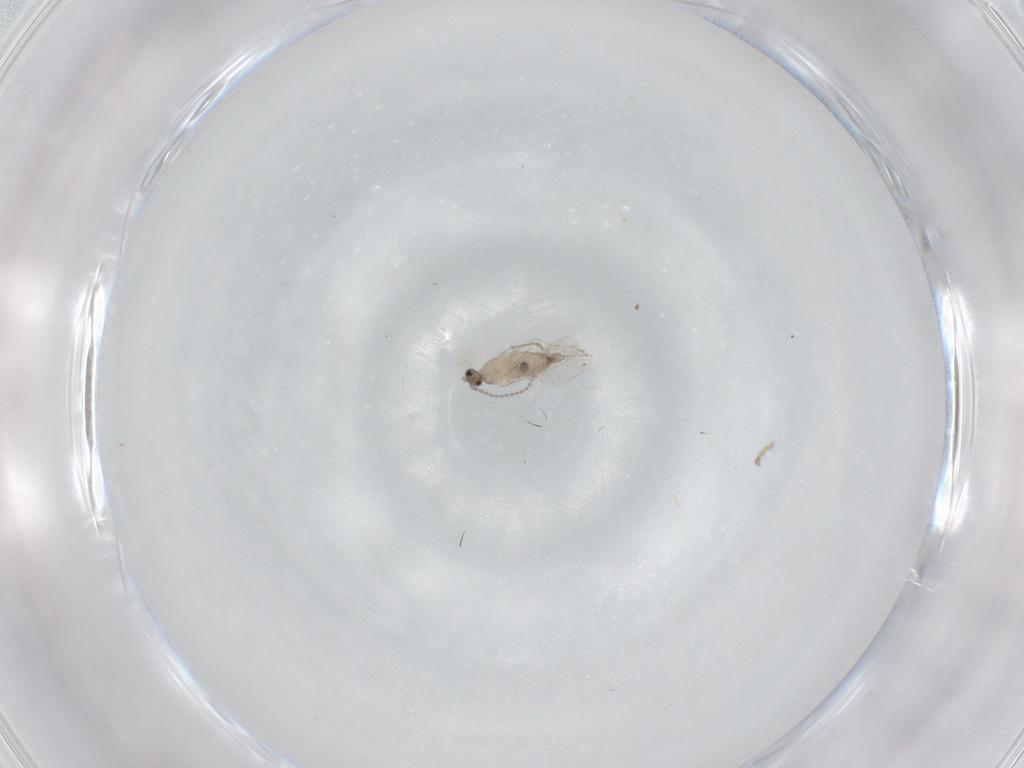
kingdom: Animalia
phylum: Arthropoda
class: Insecta
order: Diptera
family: Cecidomyiidae
